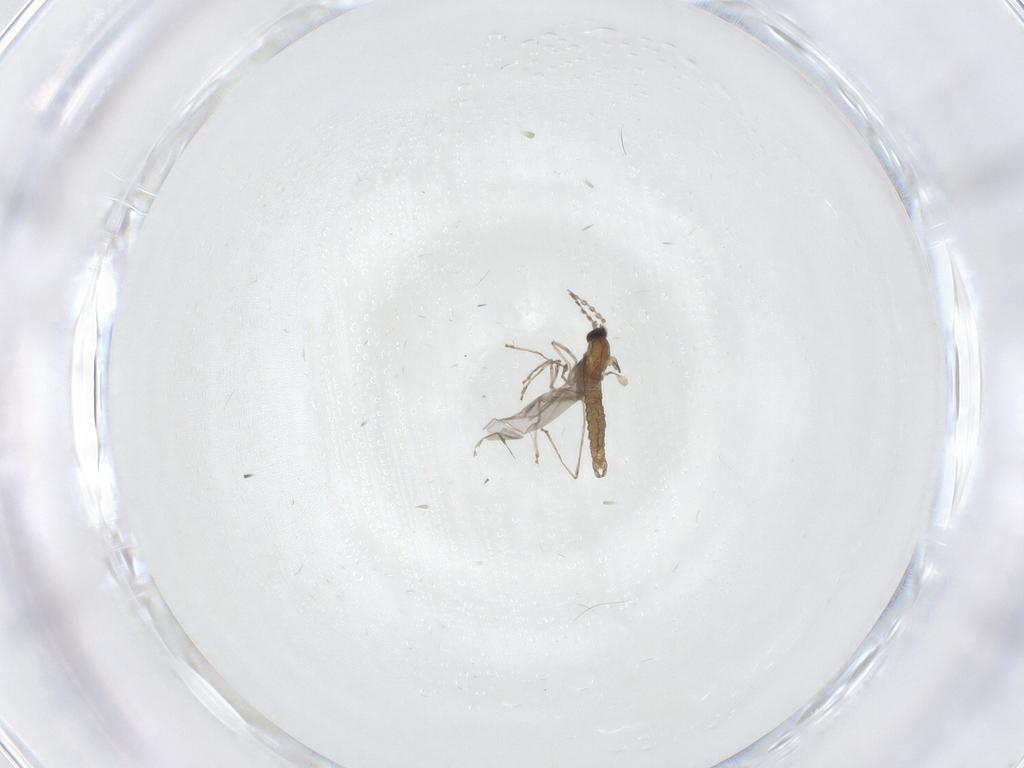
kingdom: Animalia
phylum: Arthropoda
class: Insecta
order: Diptera
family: Cecidomyiidae
